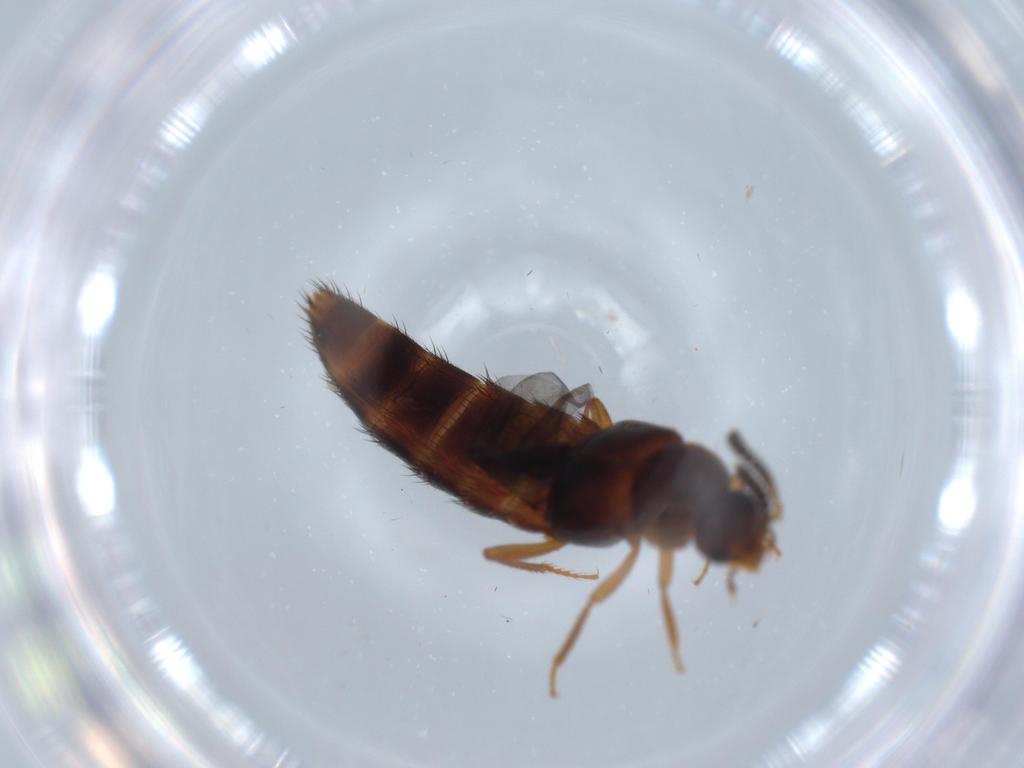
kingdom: Animalia
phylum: Arthropoda
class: Insecta
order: Coleoptera
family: Staphylinidae
